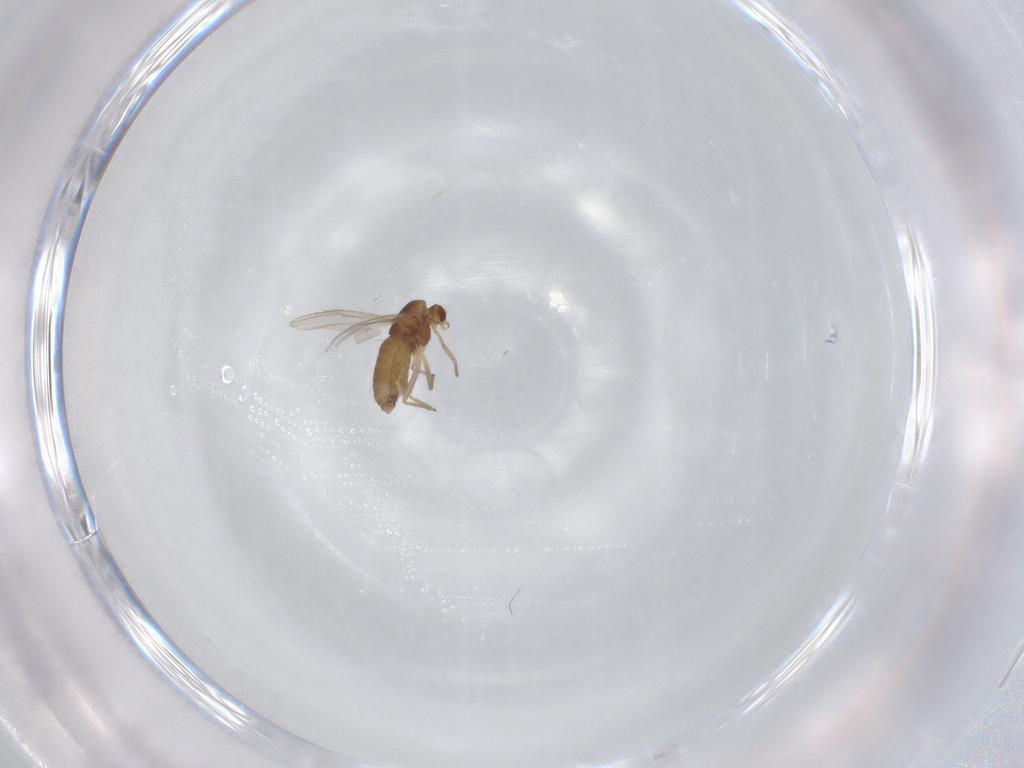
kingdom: Animalia
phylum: Arthropoda
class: Insecta
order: Diptera
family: Chironomidae
